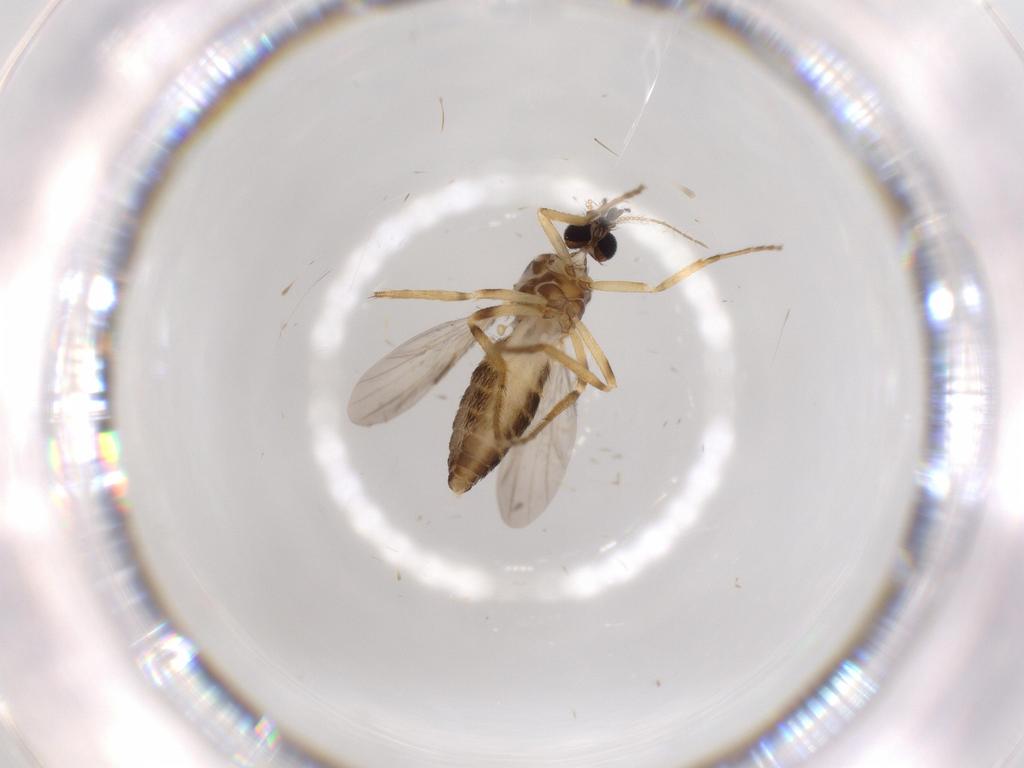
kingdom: Animalia
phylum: Arthropoda
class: Insecta
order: Diptera
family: Ceratopogonidae
